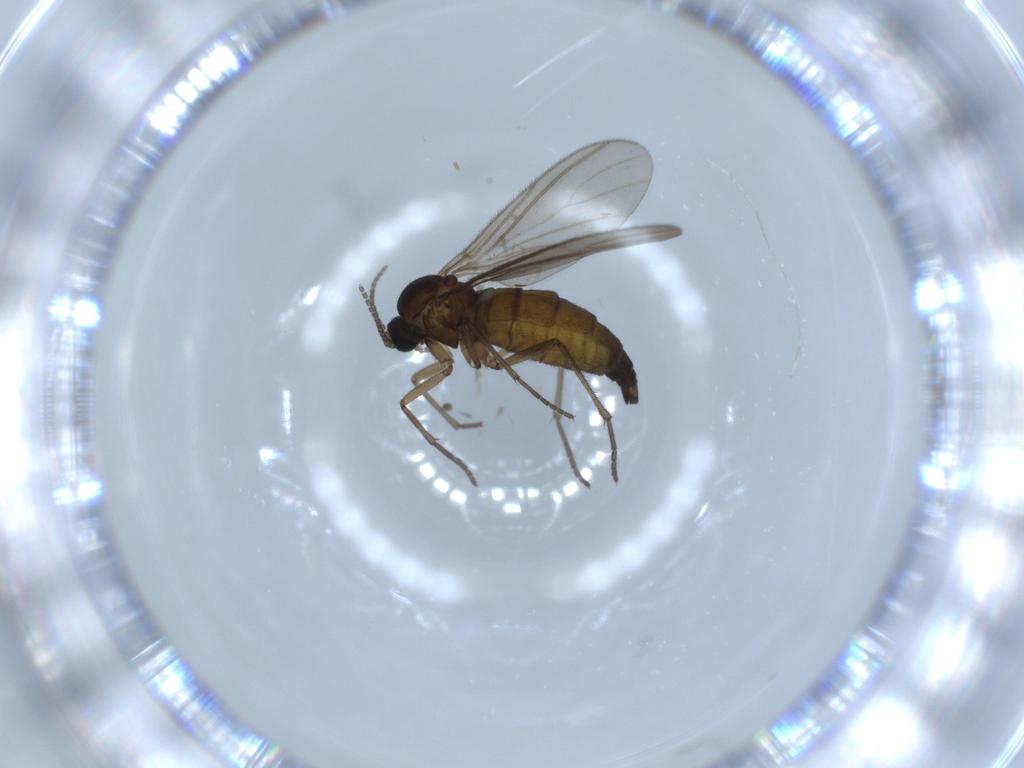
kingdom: Animalia
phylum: Arthropoda
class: Insecta
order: Diptera
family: Sciaridae
